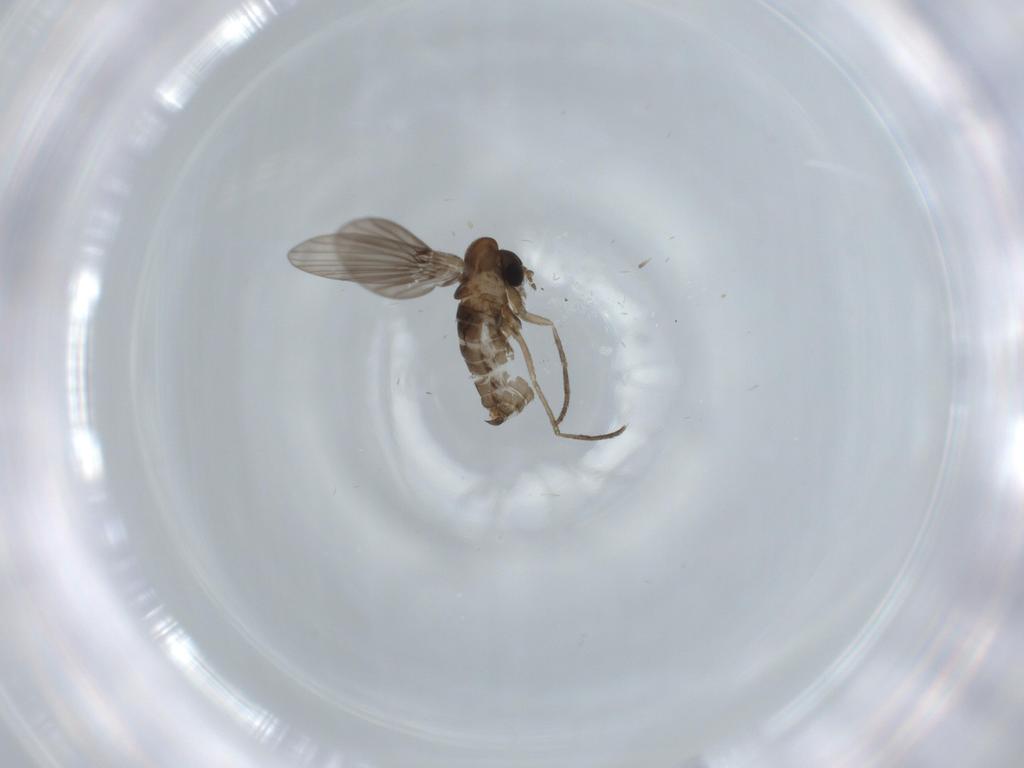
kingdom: Animalia
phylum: Arthropoda
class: Insecta
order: Diptera
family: Psychodidae
